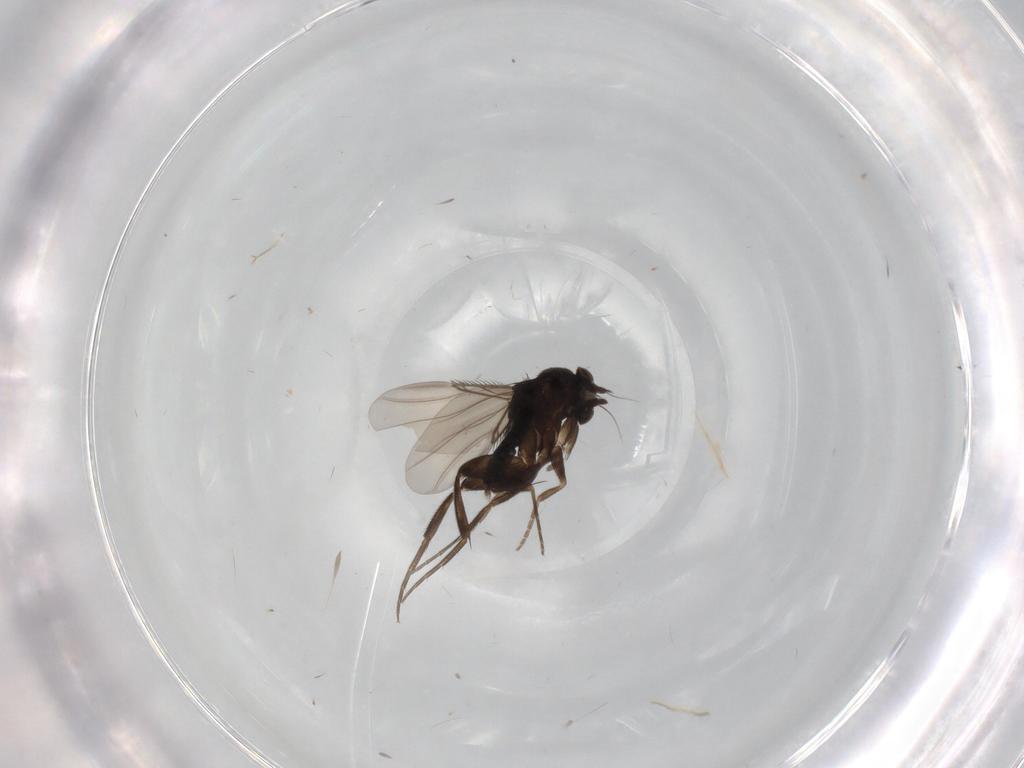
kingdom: Animalia
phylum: Arthropoda
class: Insecta
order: Diptera
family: Phoridae
